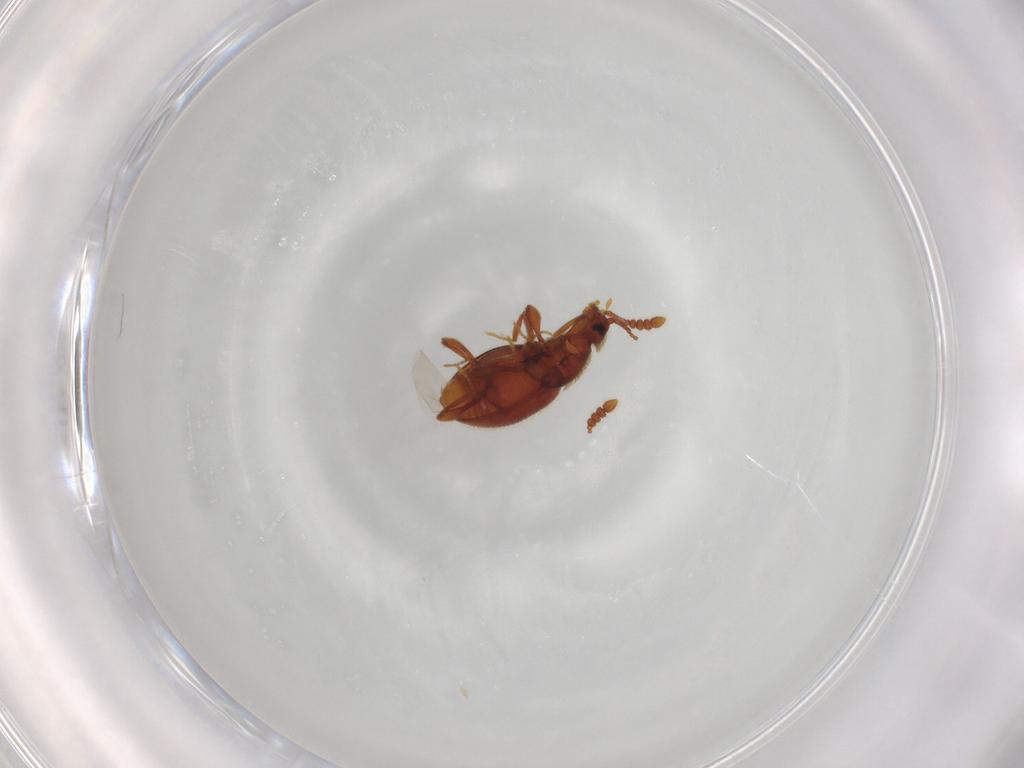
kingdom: Animalia
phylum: Arthropoda
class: Insecta
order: Coleoptera
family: Staphylinidae
